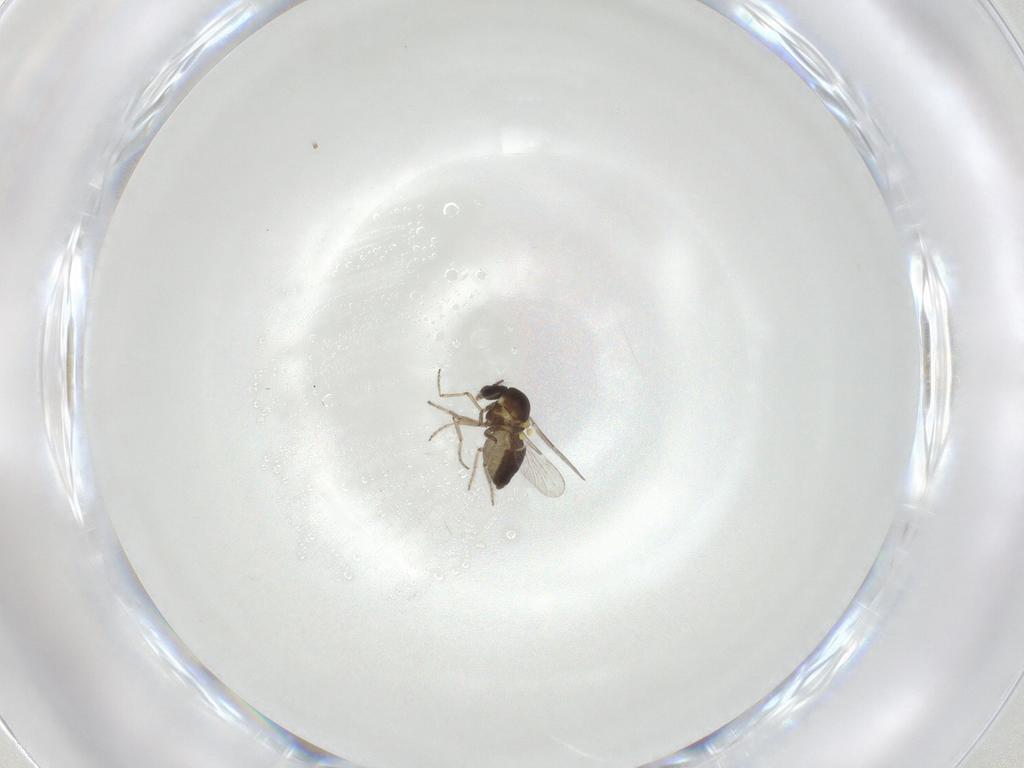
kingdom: Animalia
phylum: Arthropoda
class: Insecta
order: Diptera
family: Ceratopogonidae
